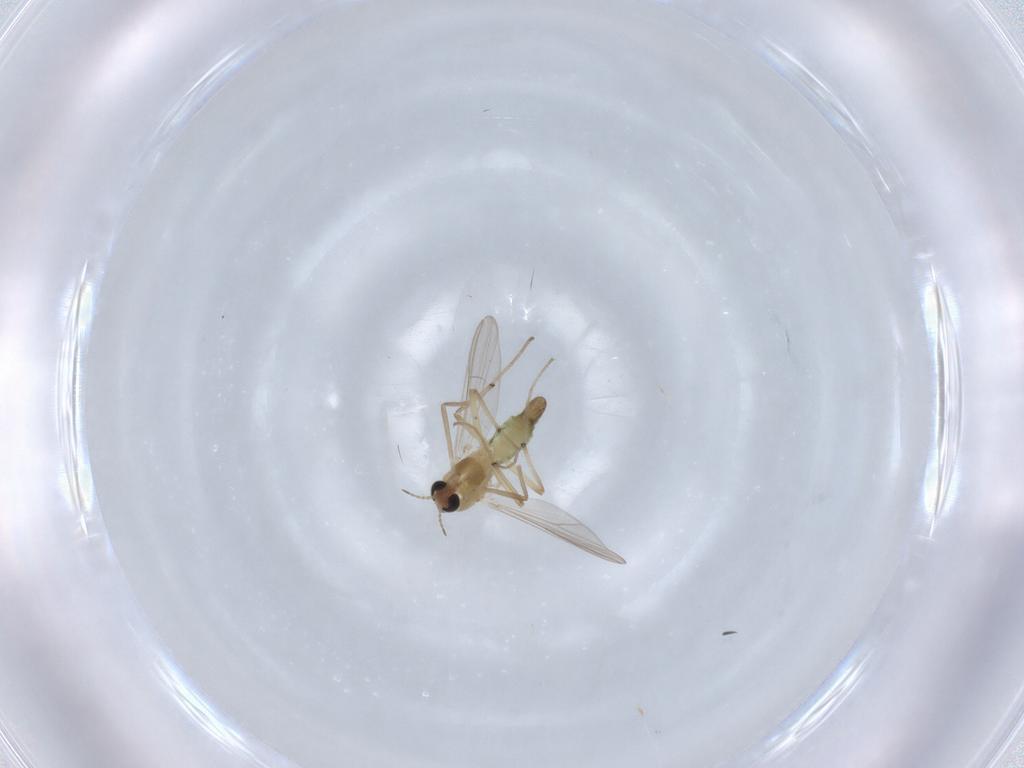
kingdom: Animalia
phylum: Arthropoda
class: Insecta
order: Diptera
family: Chironomidae
